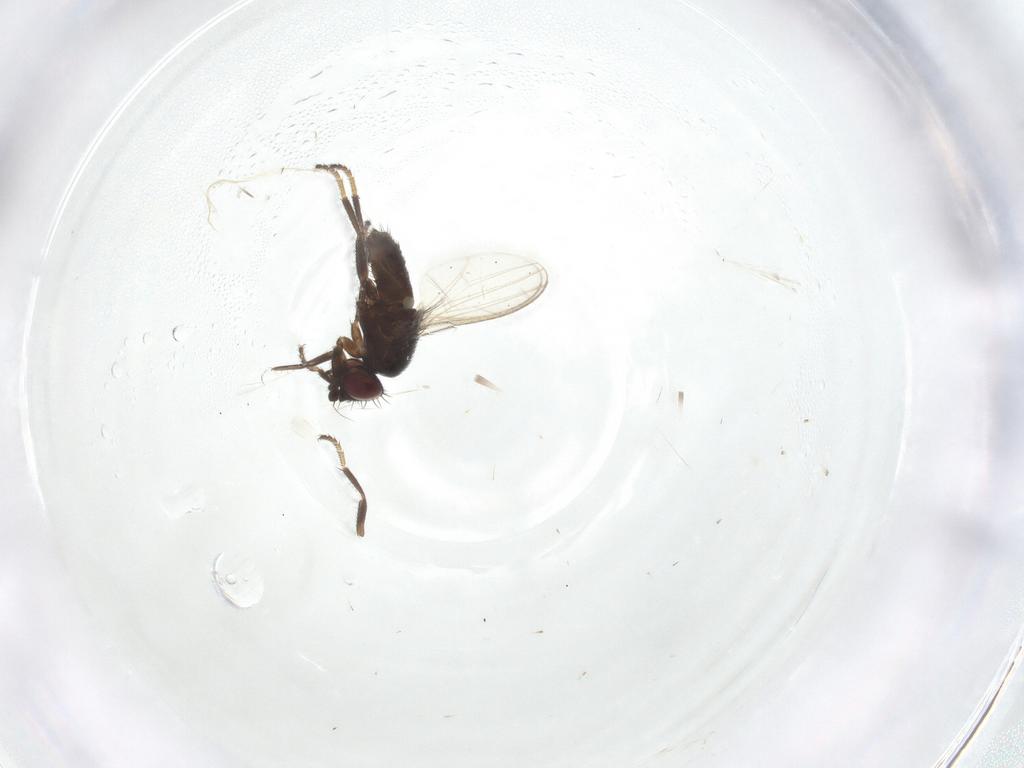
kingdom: Animalia
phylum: Arthropoda
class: Insecta
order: Diptera
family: Milichiidae
